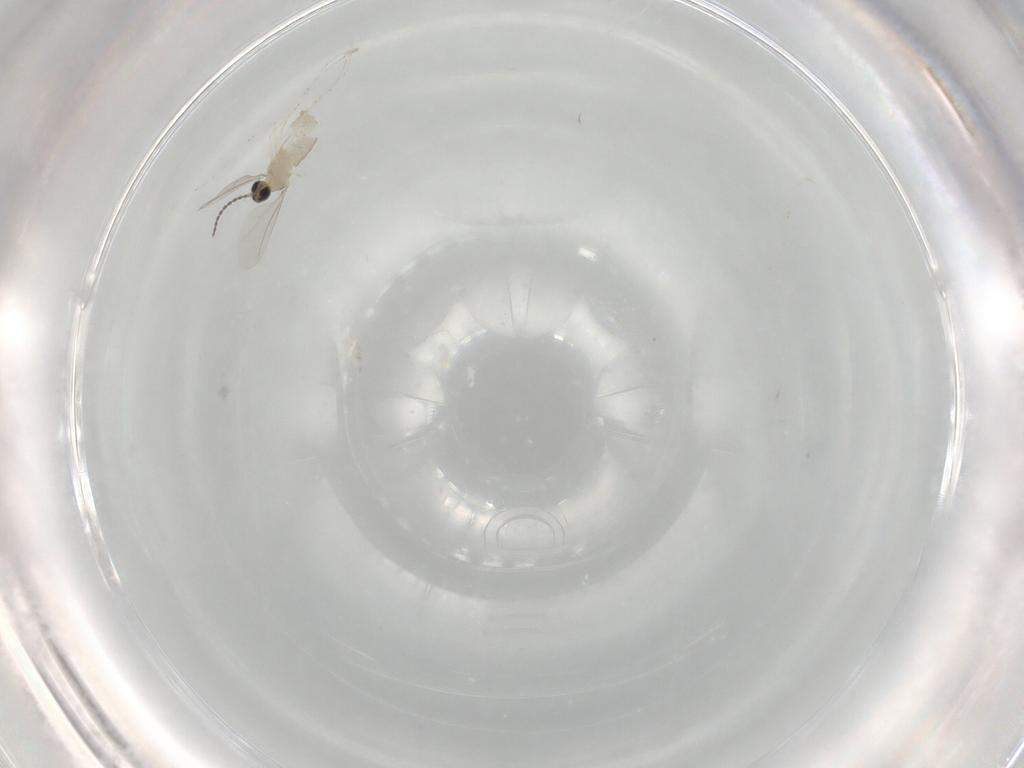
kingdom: Animalia
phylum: Arthropoda
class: Insecta
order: Diptera
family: Cecidomyiidae
